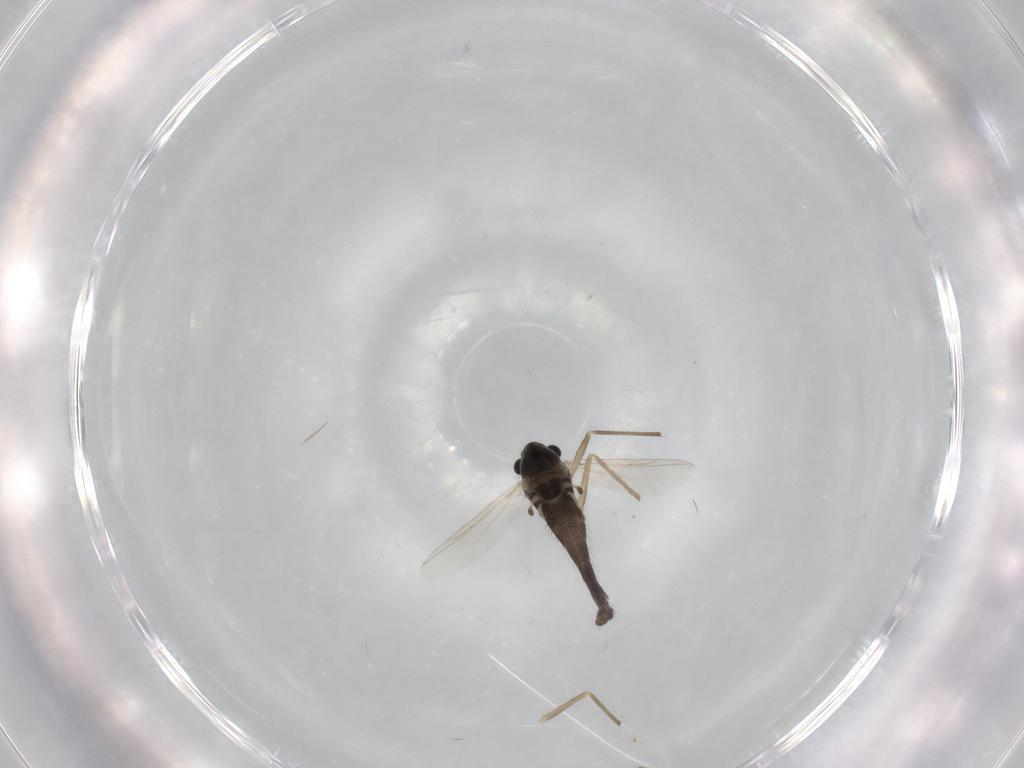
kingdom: Animalia
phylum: Arthropoda
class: Insecta
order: Diptera
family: Chironomidae
